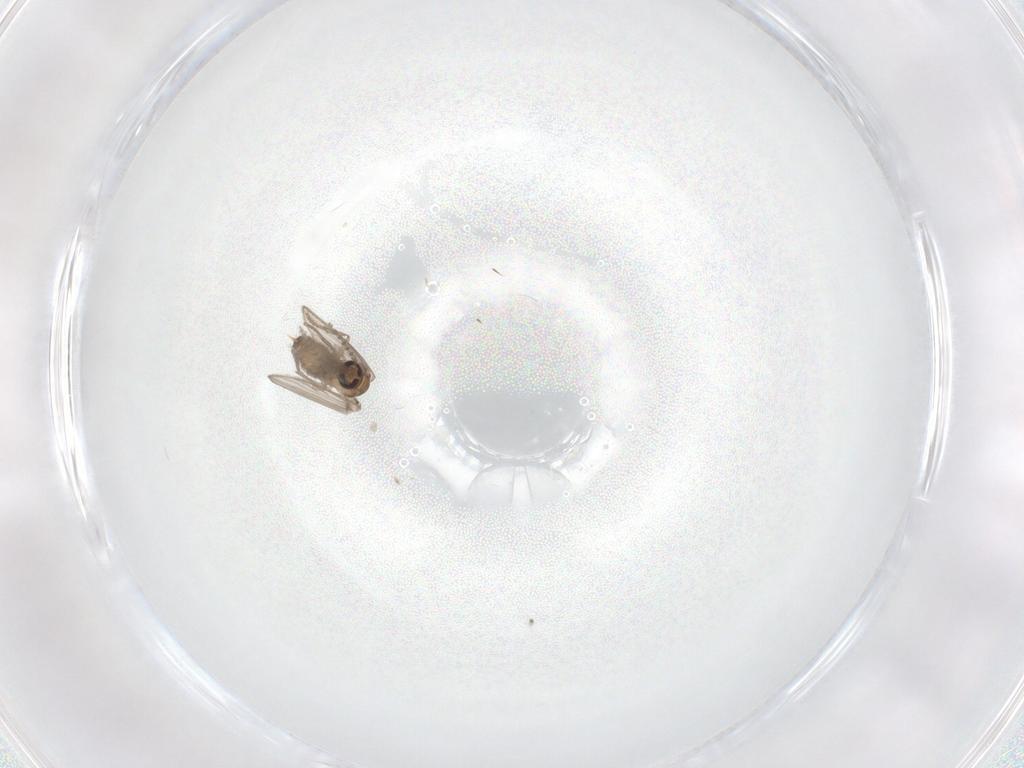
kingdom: Animalia
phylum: Arthropoda
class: Insecta
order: Diptera
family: Psychodidae
